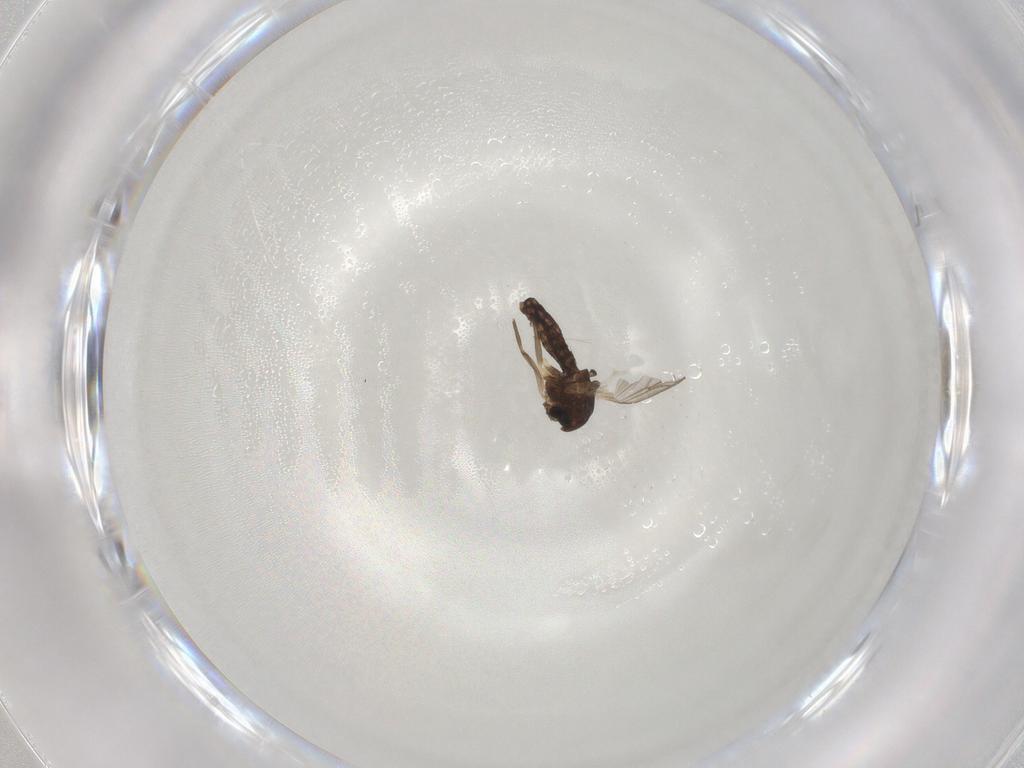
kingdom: Animalia
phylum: Arthropoda
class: Insecta
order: Diptera
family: Chironomidae
